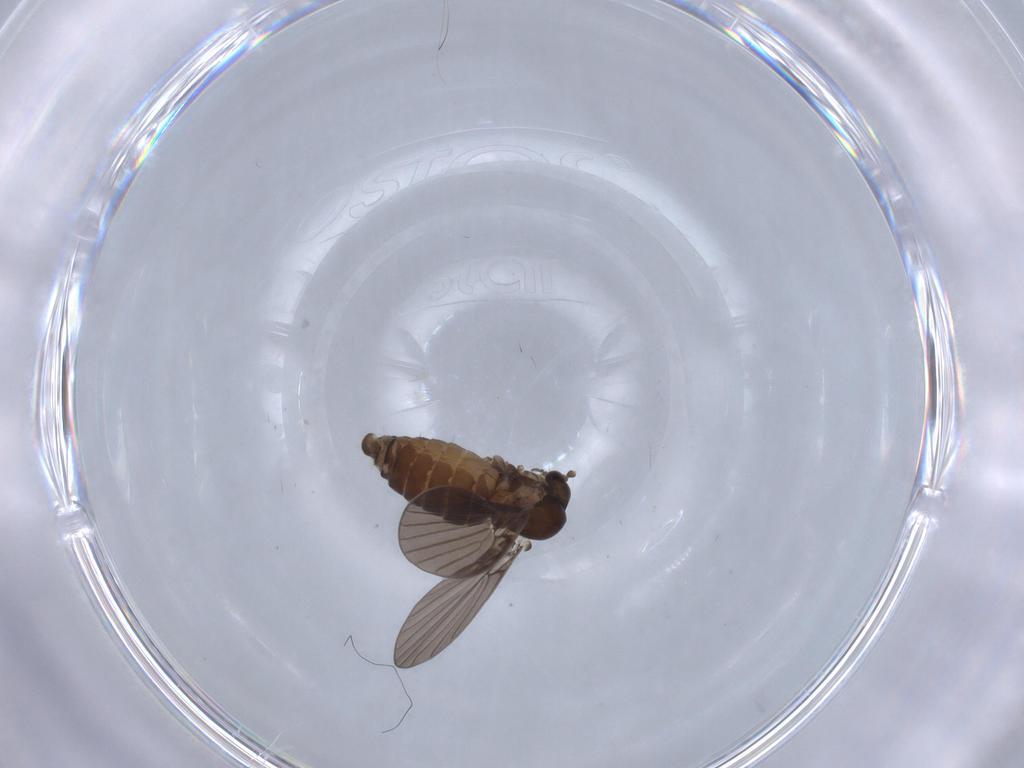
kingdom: Animalia
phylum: Arthropoda
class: Insecta
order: Diptera
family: Psychodidae
